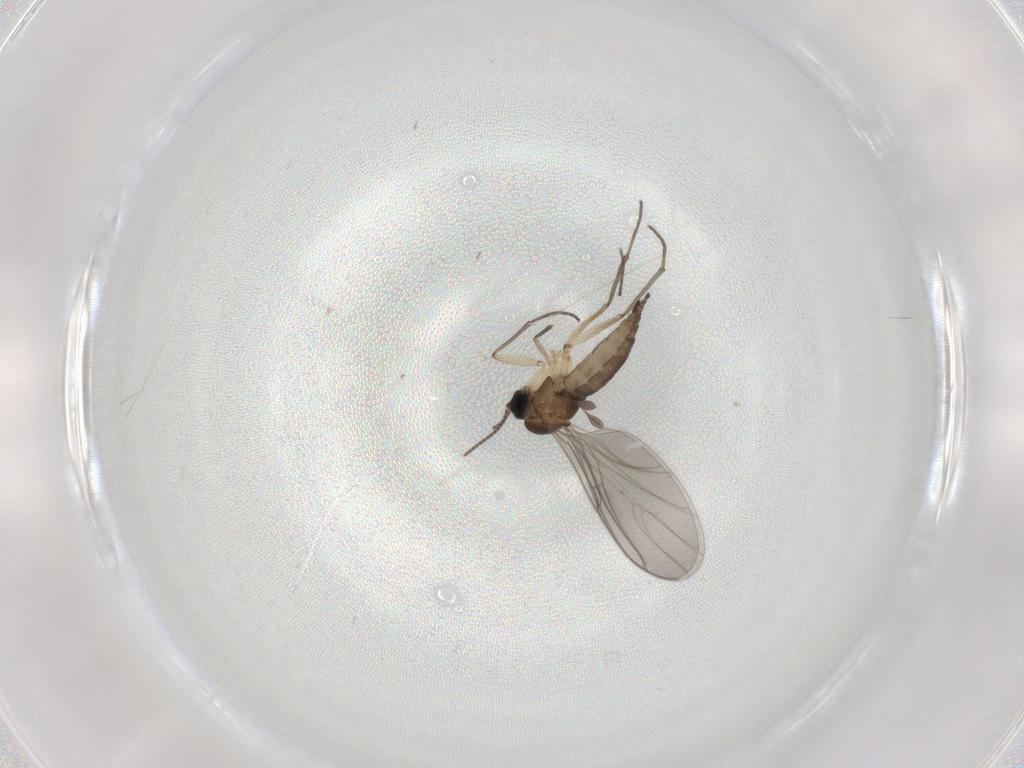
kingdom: Animalia
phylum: Arthropoda
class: Insecta
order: Diptera
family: Sciaridae
